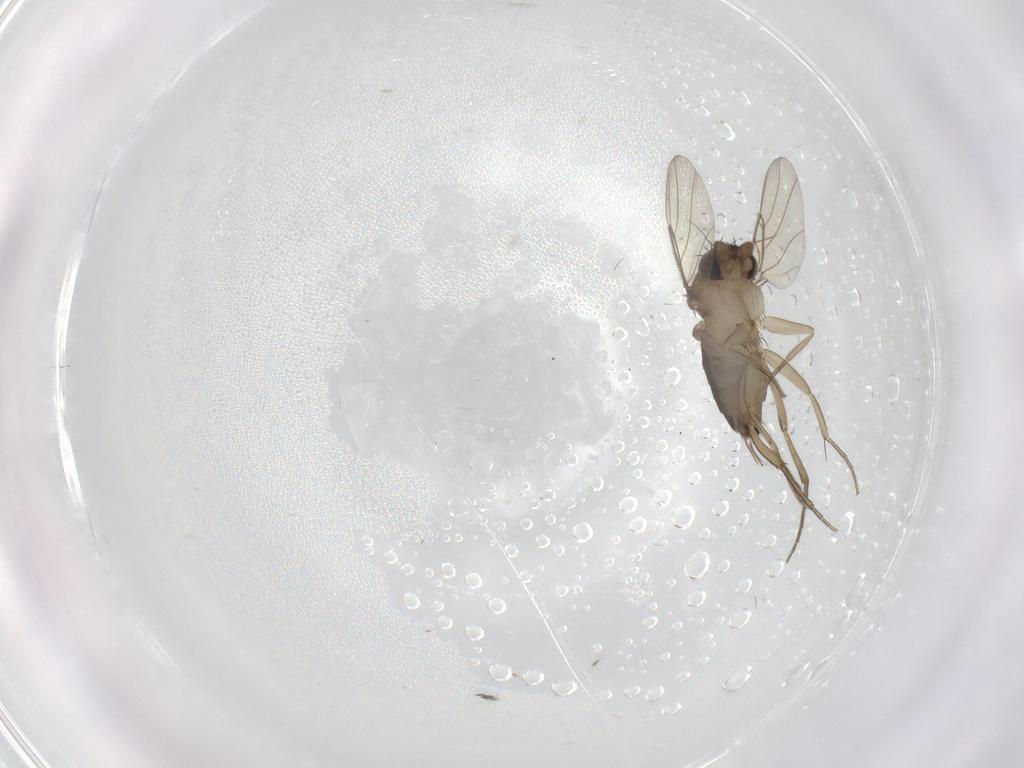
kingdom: Animalia
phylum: Arthropoda
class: Insecta
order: Diptera
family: Phoridae
